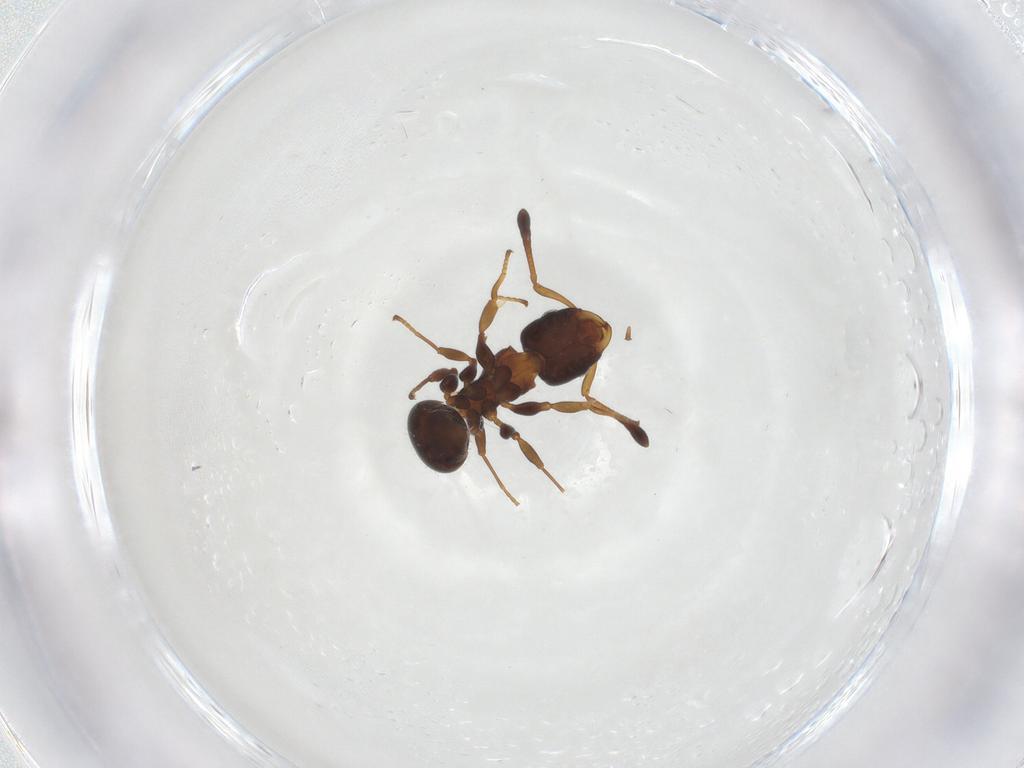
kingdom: Animalia
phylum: Arthropoda
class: Insecta
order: Hymenoptera
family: Formicidae
